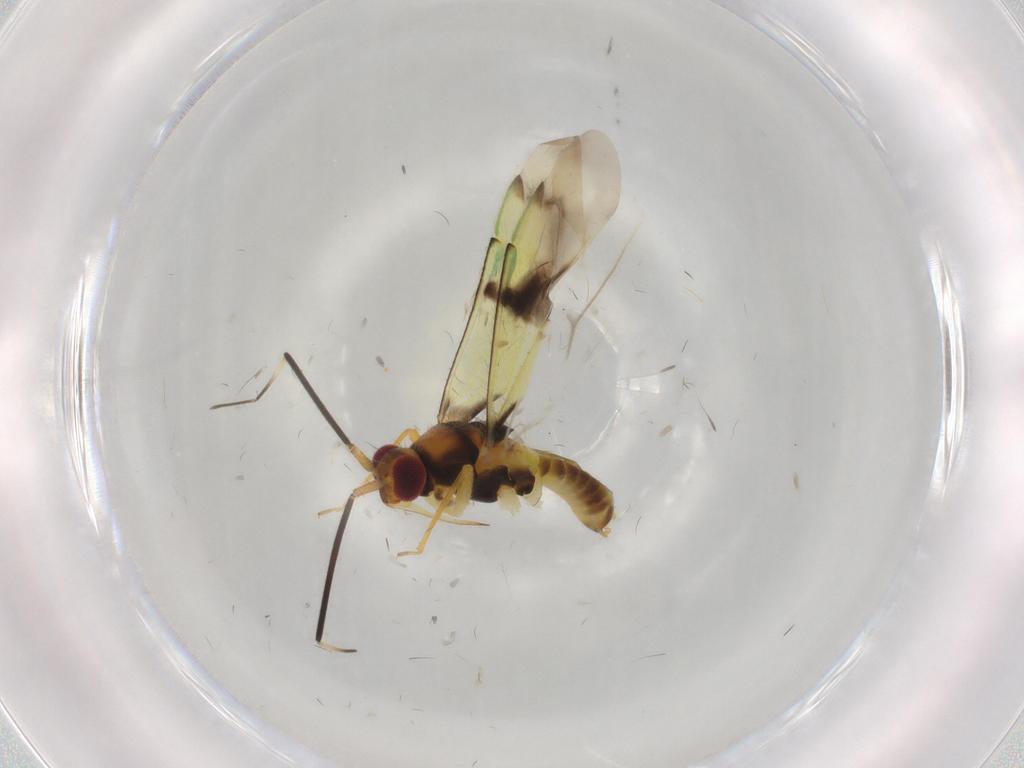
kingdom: Animalia
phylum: Arthropoda
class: Insecta
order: Hemiptera
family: Miridae
